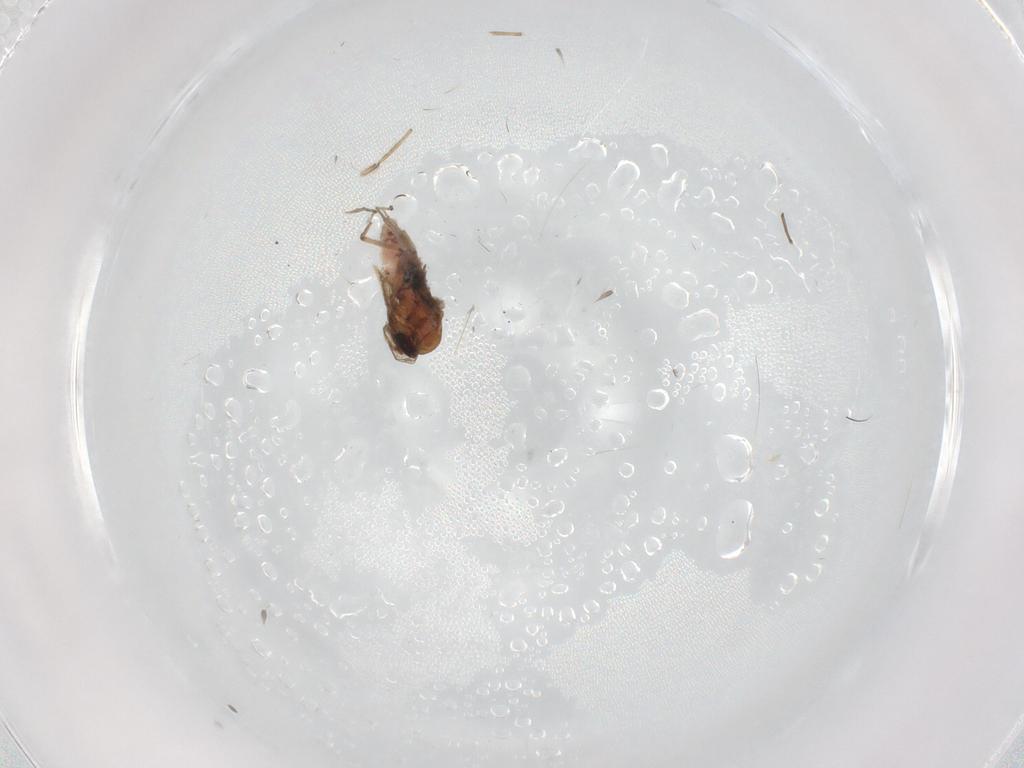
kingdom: Animalia
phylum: Arthropoda
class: Insecta
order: Diptera
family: Ceratopogonidae
